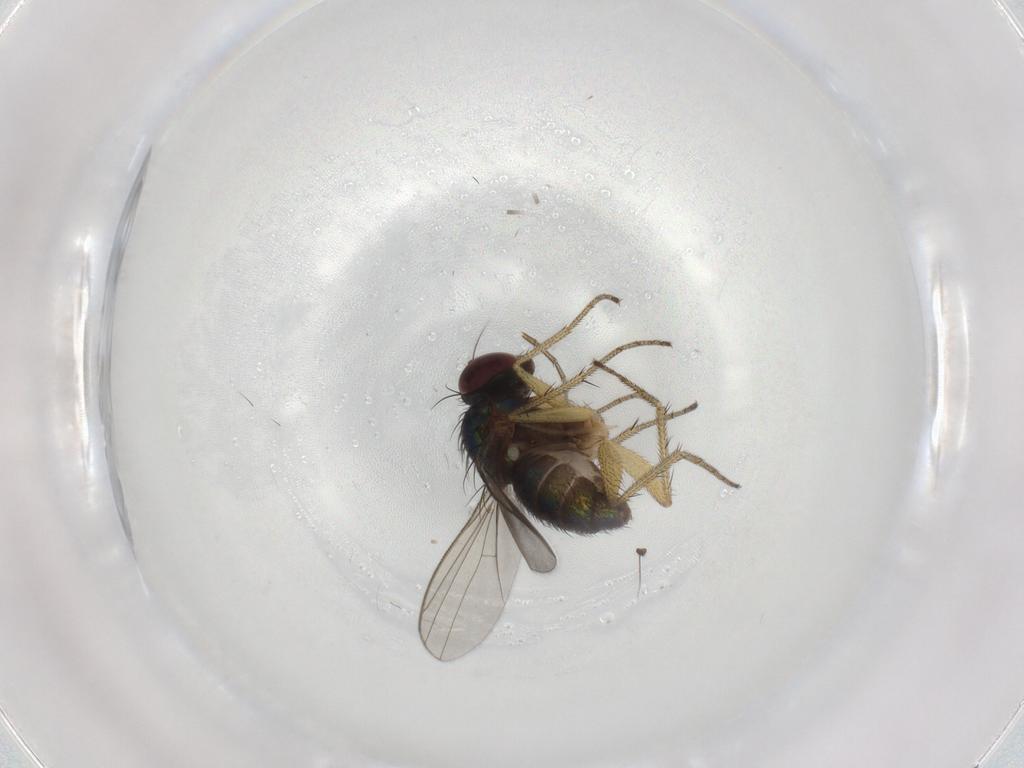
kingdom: Animalia
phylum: Arthropoda
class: Insecta
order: Diptera
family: Dolichopodidae
